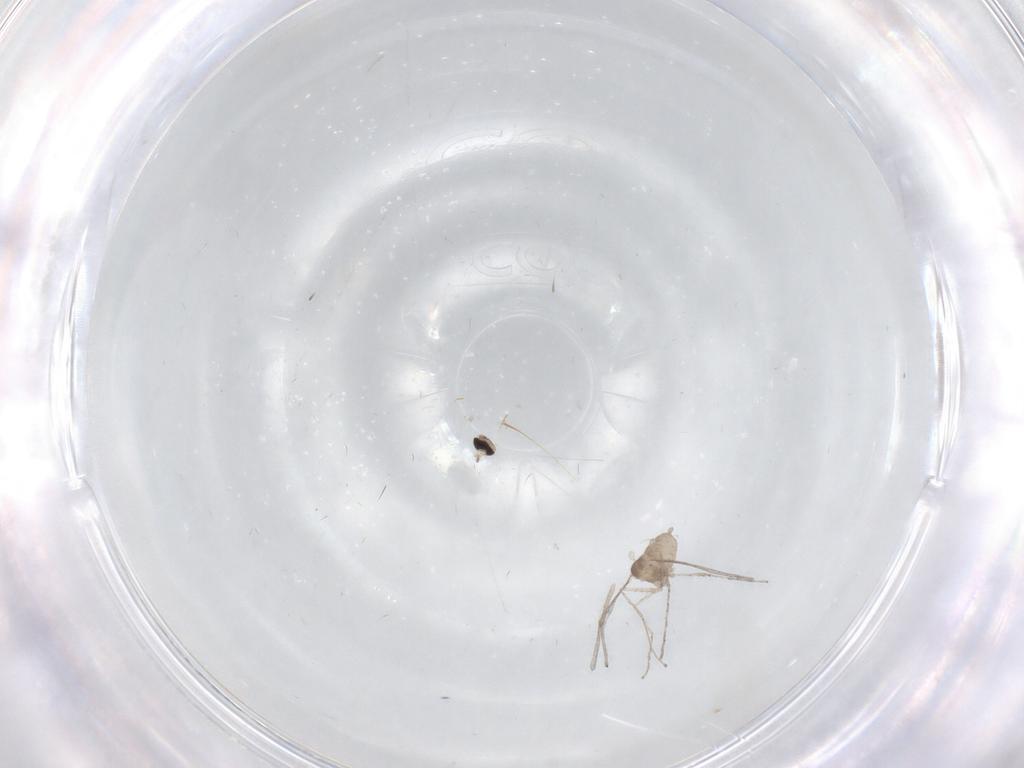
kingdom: Animalia
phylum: Arthropoda
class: Insecta
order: Diptera
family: Cecidomyiidae
